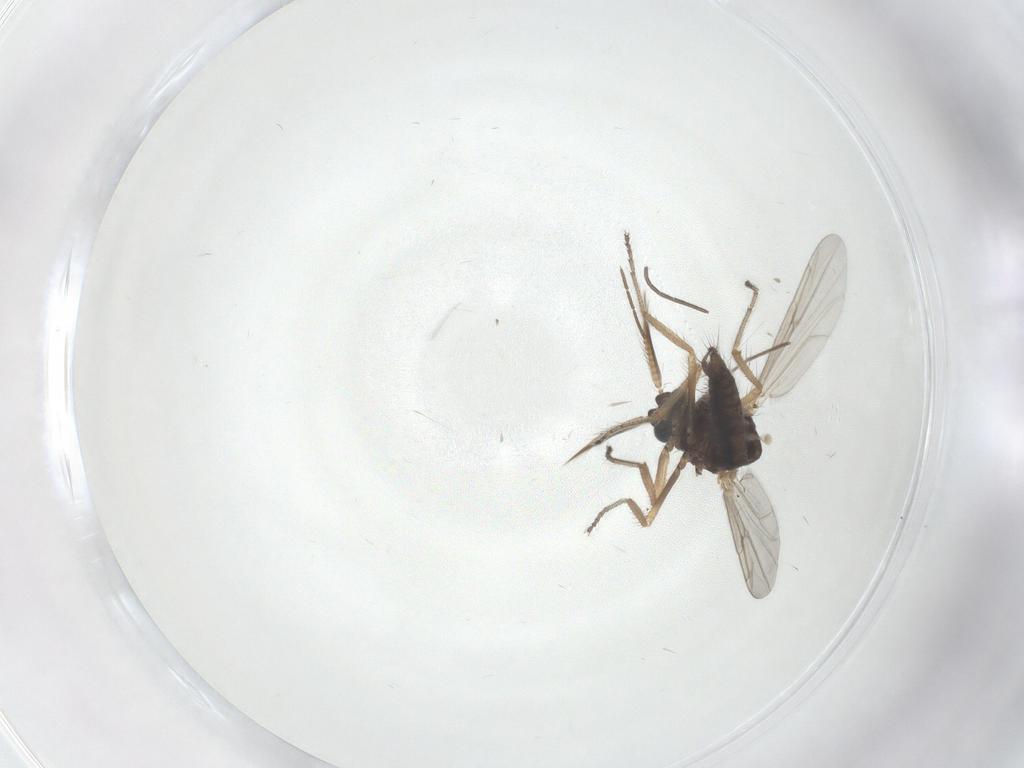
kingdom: Animalia
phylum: Arthropoda
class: Insecta
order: Diptera
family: Ceratopogonidae
